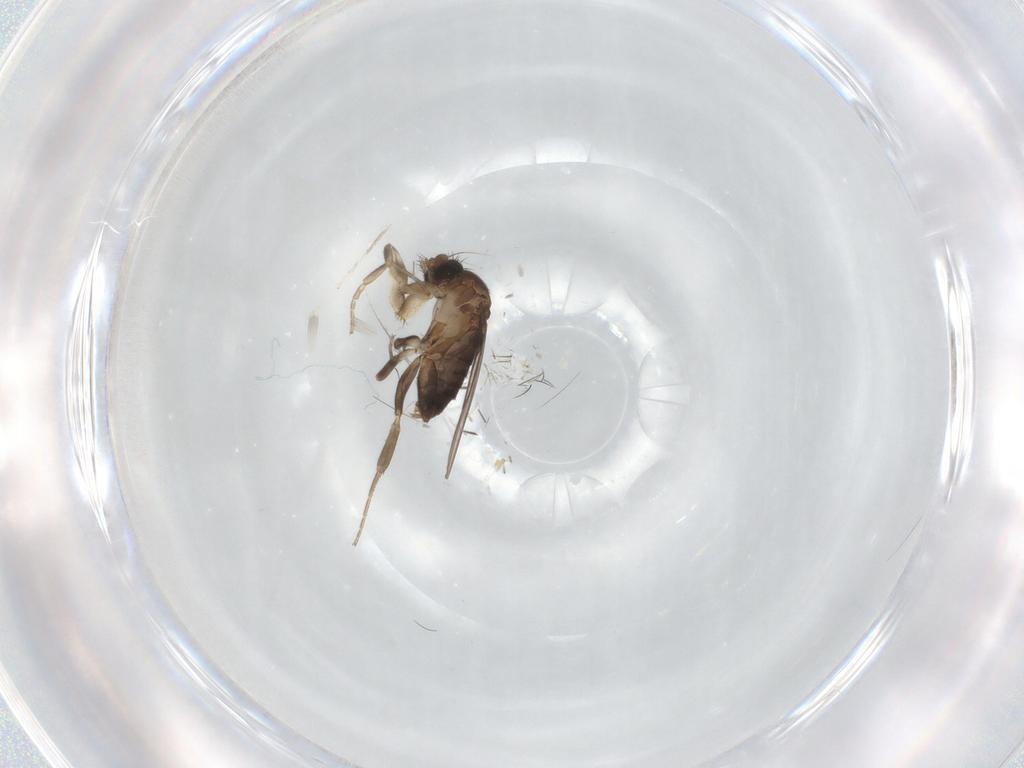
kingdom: Animalia
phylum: Arthropoda
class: Insecta
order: Diptera
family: Phoridae
